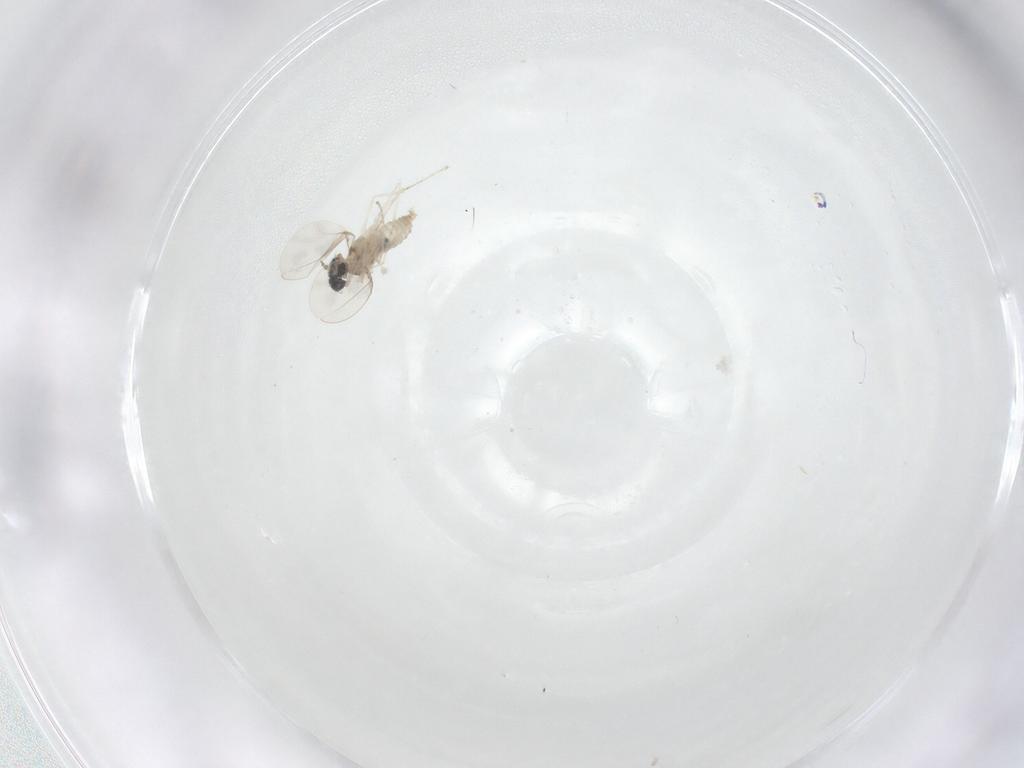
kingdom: Animalia
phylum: Arthropoda
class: Insecta
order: Diptera
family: Cecidomyiidae
